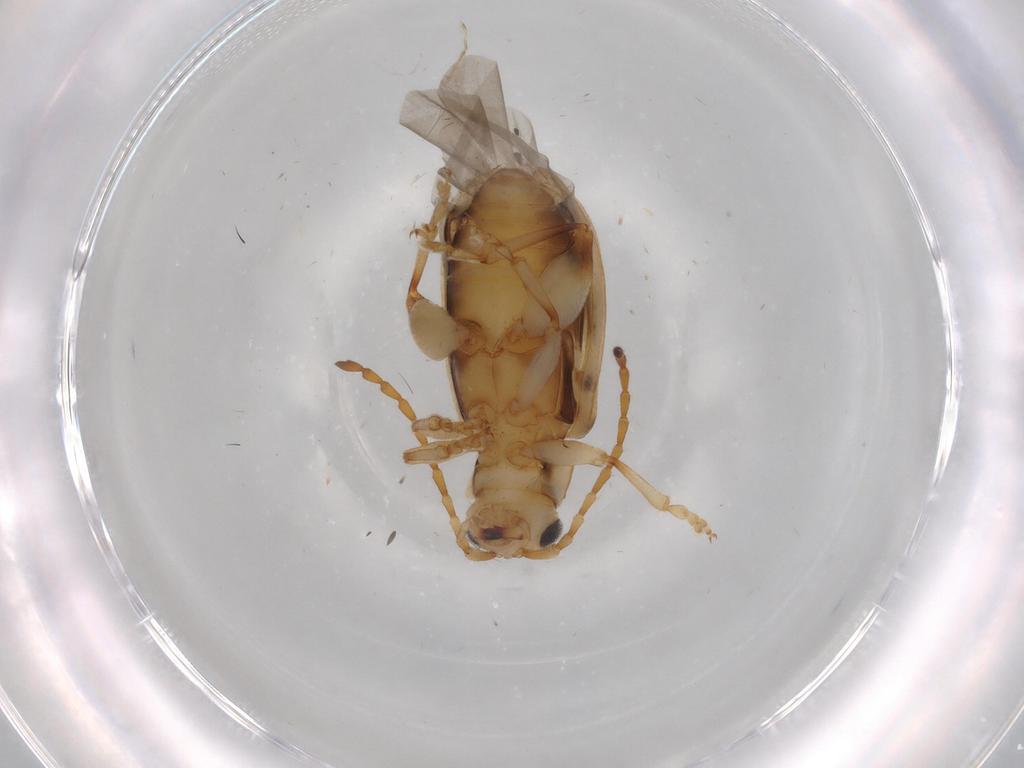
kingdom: Animalia
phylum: Arthropoda
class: Insecta
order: Coleoptera
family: Chrysomelidae
